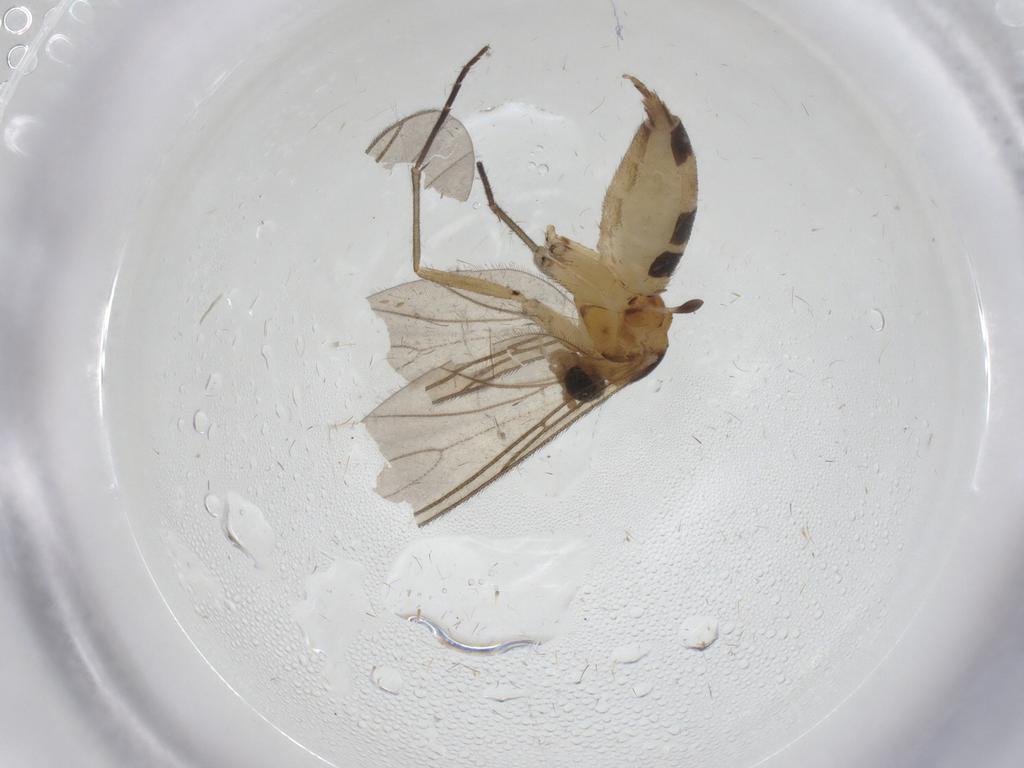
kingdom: Animalia
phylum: Arthropoda
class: Insecta
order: Diptera
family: Sciaridae
